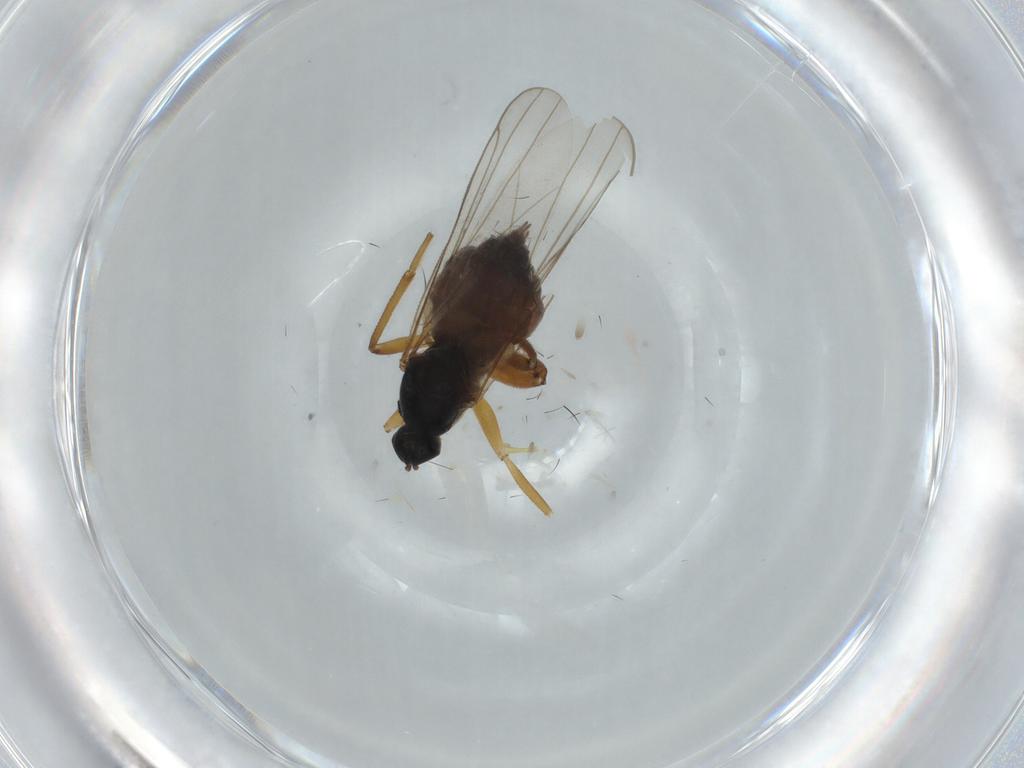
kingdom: Animalia
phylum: Arthropoda
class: Insecta
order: Diptera
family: Hybotidae
